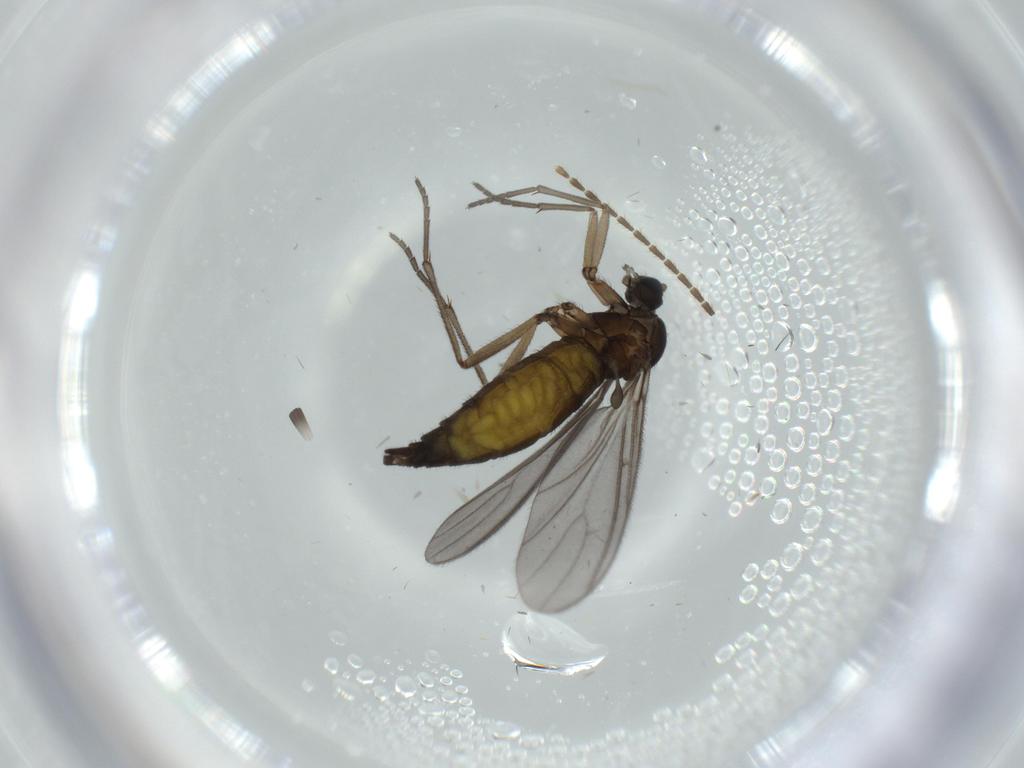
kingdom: Animalia
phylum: Arthropoda
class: Insecta
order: Diptera
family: Sciaridae
